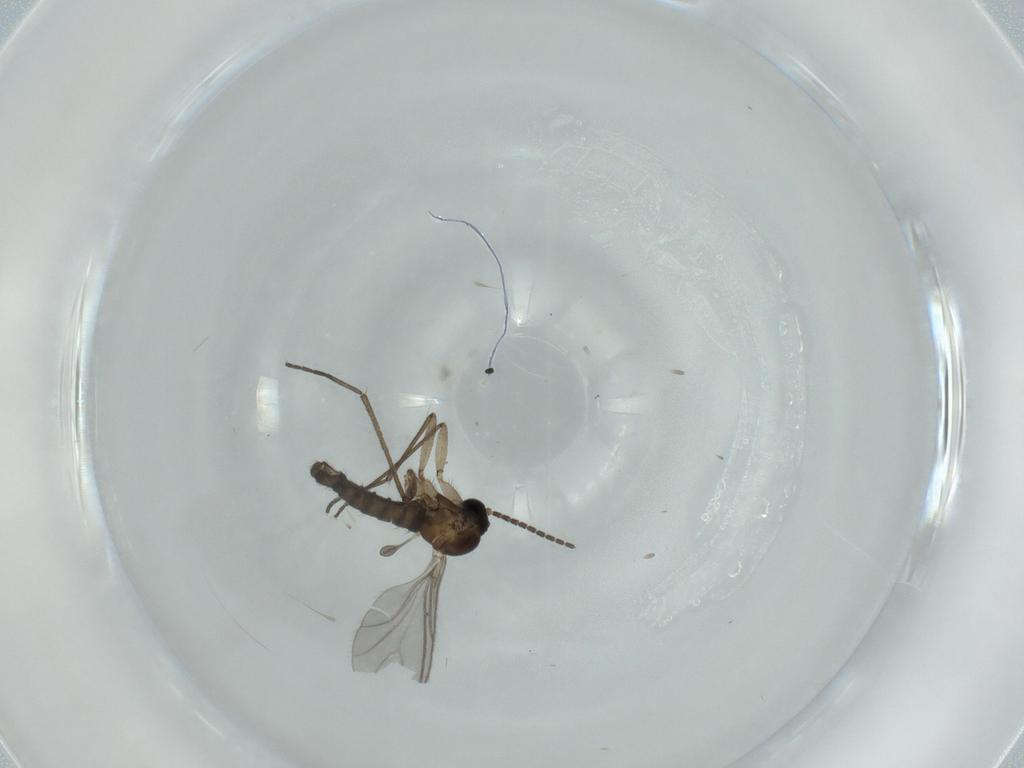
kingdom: Animalia
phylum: Arthropoda
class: Insecta
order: Diptera
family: Sciaridae
